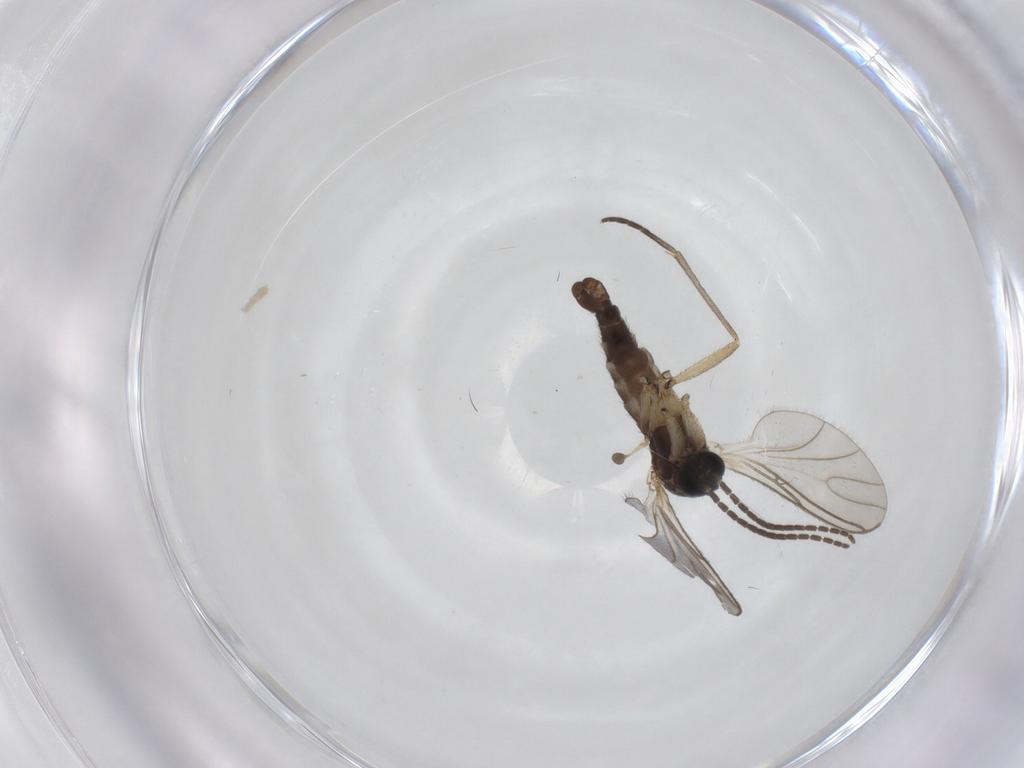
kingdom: Animalia
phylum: Arthropoda
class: Insecta
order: Diptera
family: Sciaridae
